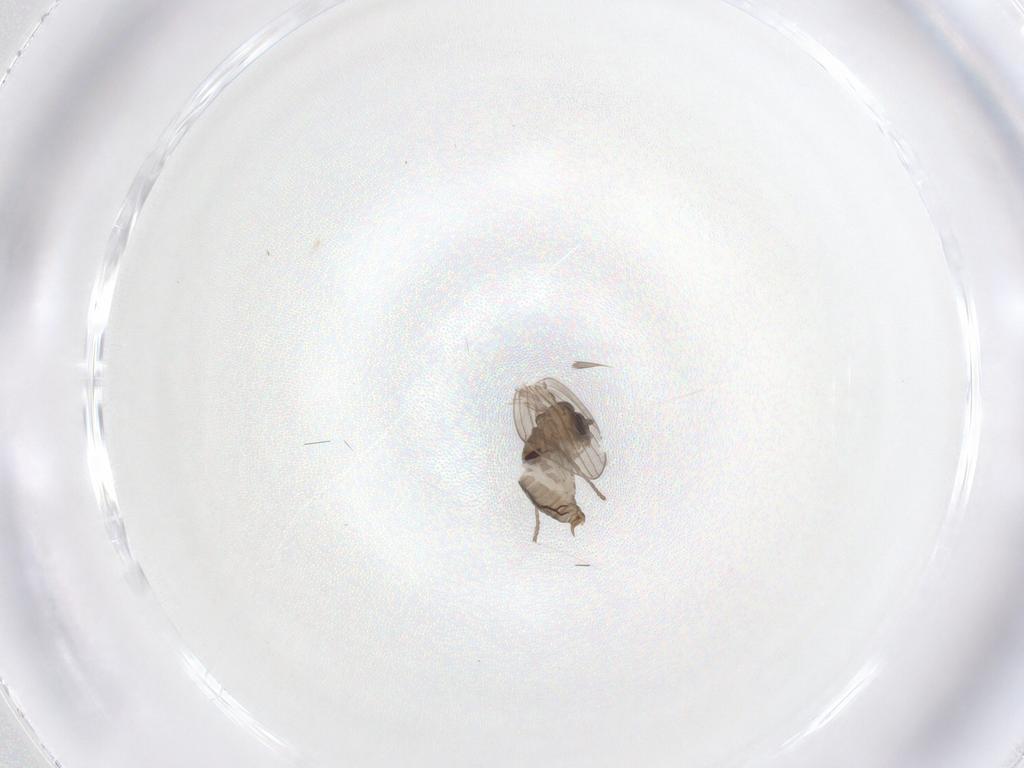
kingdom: Animalia
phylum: Arthropoda
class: Insecta
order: Diptera
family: Psychodidae
